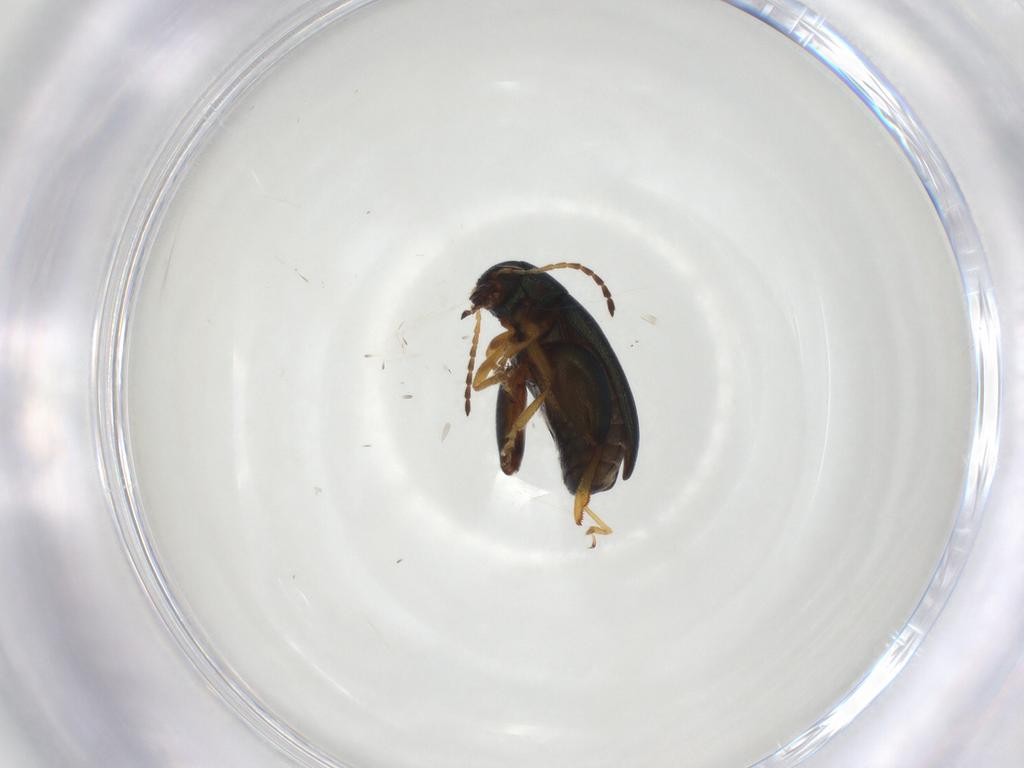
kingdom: Animalia
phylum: Arthropoda
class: Insecta
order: Coleoptera
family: Chrysomelidae
